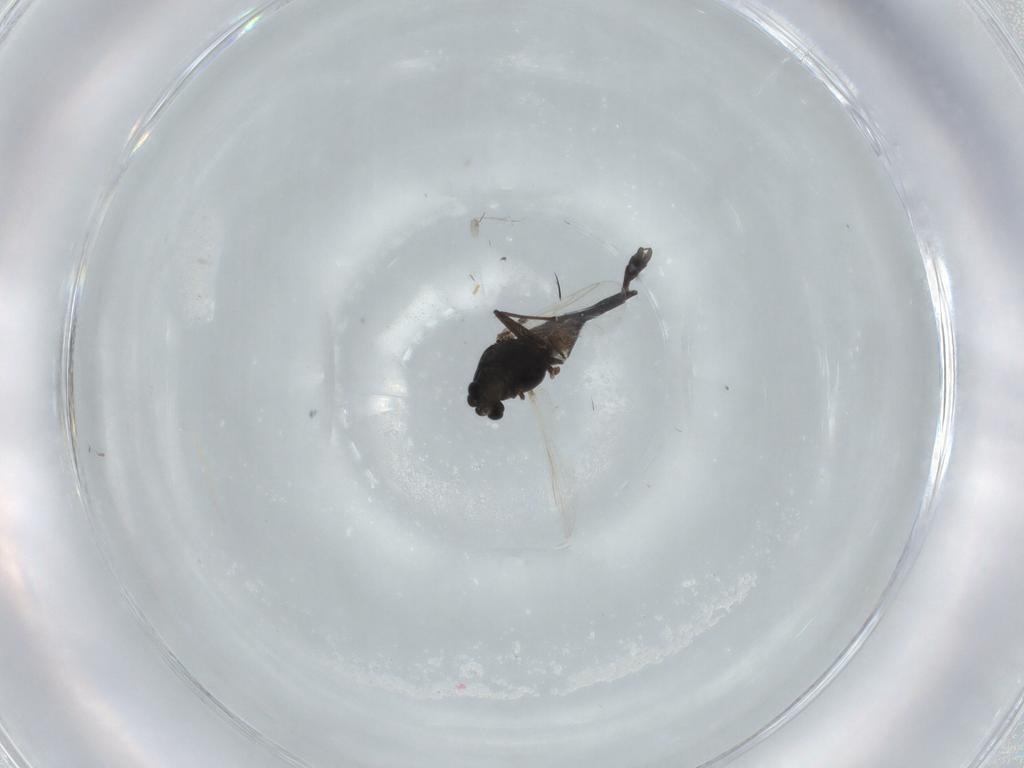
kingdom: Animalia
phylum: Arthropoda
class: Insecta
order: Diptera
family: Chironomidae
